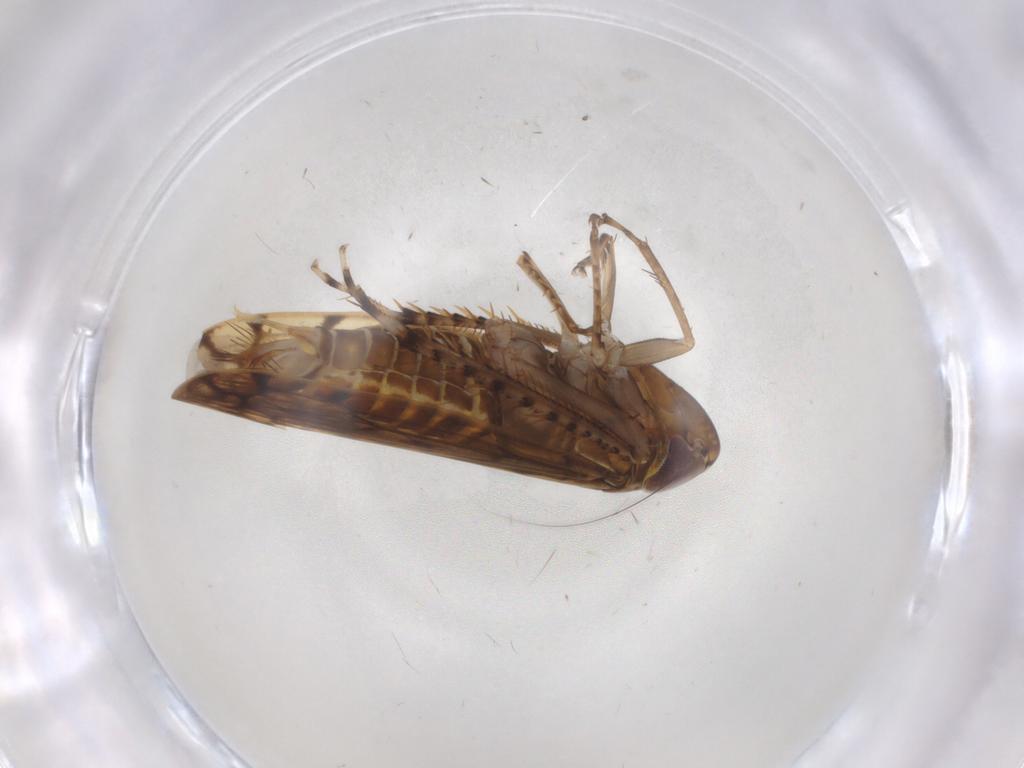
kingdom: Animalia
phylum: Arthropoda
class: Insecta
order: Hemiptera
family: Cicadellidae
